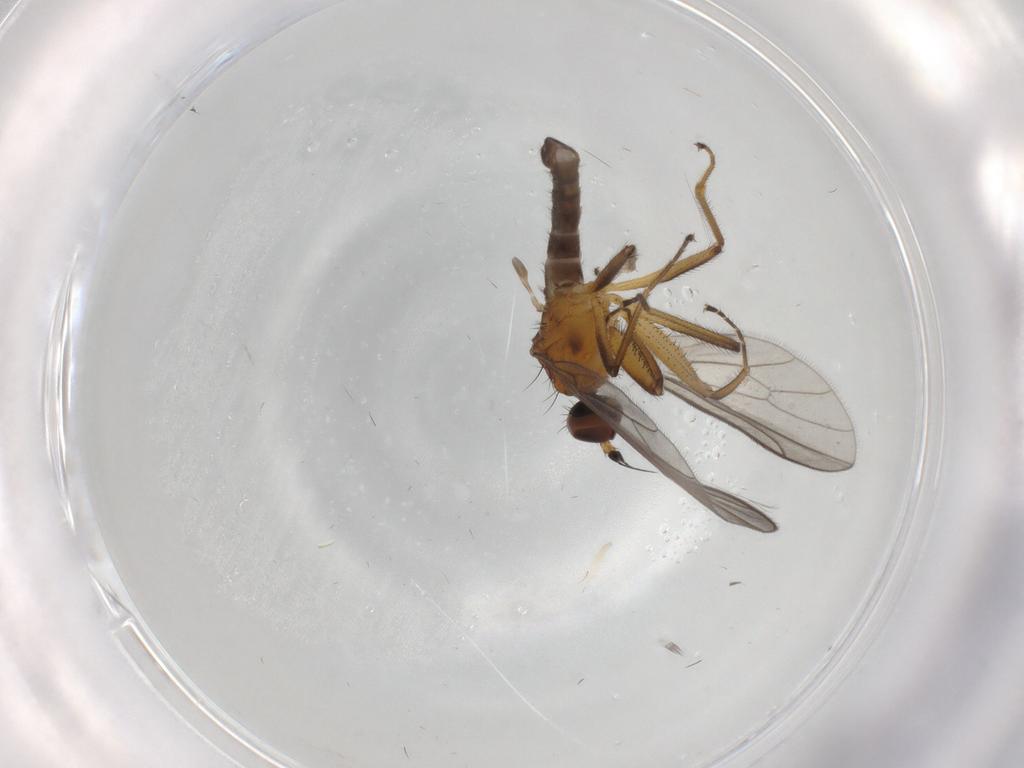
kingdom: Animalia
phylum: Arthropoda
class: Insecta
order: Diptera
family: Empididae
